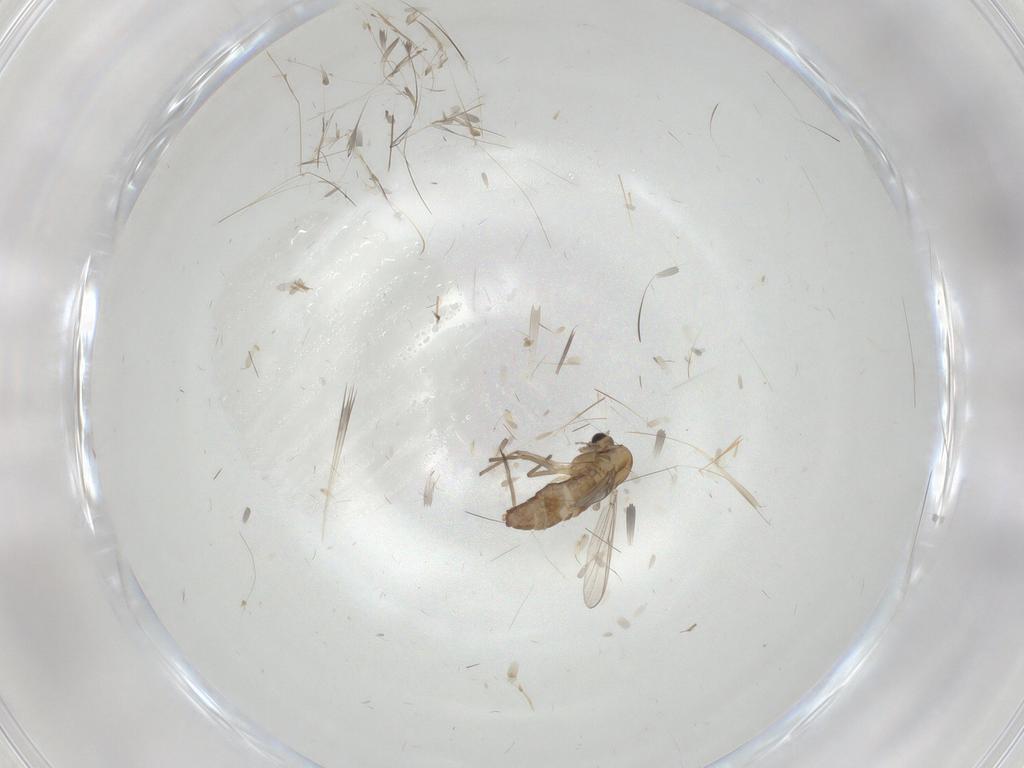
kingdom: Animalia
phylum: Arthropoda
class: Insecta
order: Diptera
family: Chironomidae
